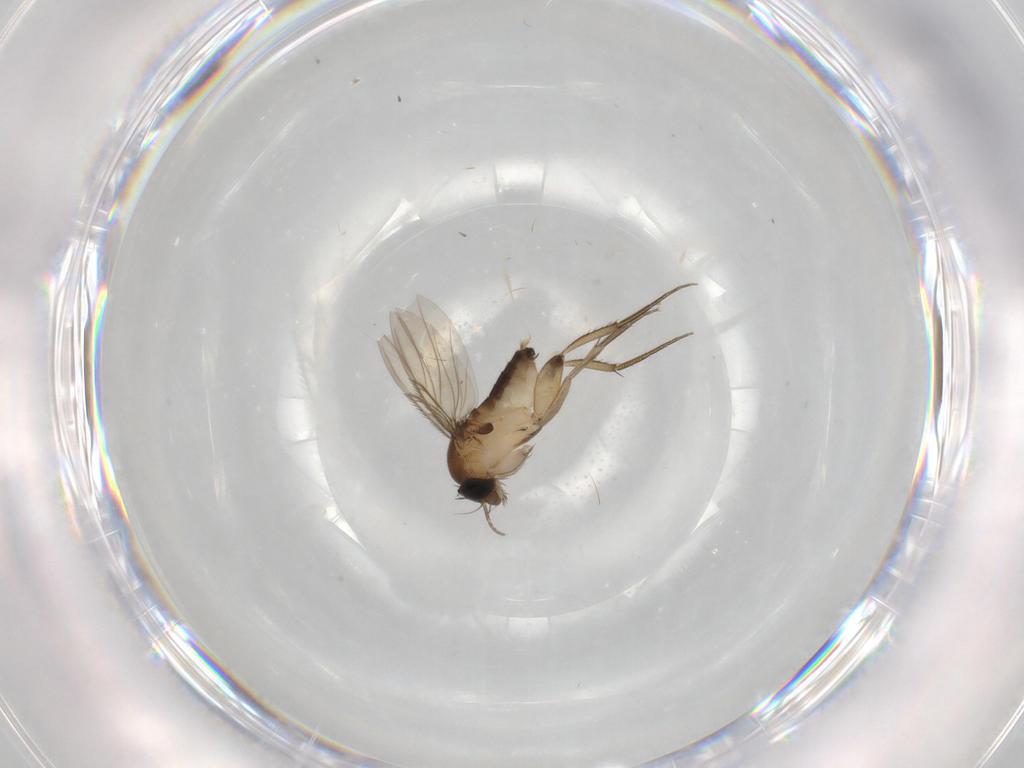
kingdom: Animalia
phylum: Arthropoda
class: Insecta
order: Diptera
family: Phoridae
